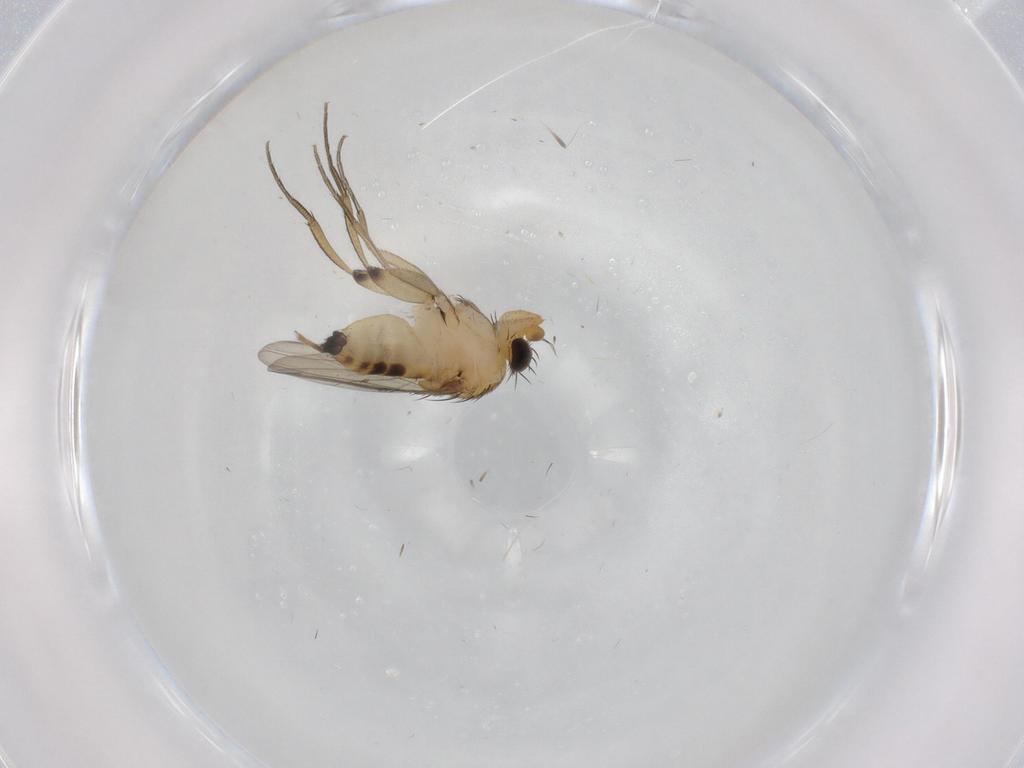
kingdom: Animalia
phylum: Arthropoda
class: Insecta
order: Diptera
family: Phoridae
